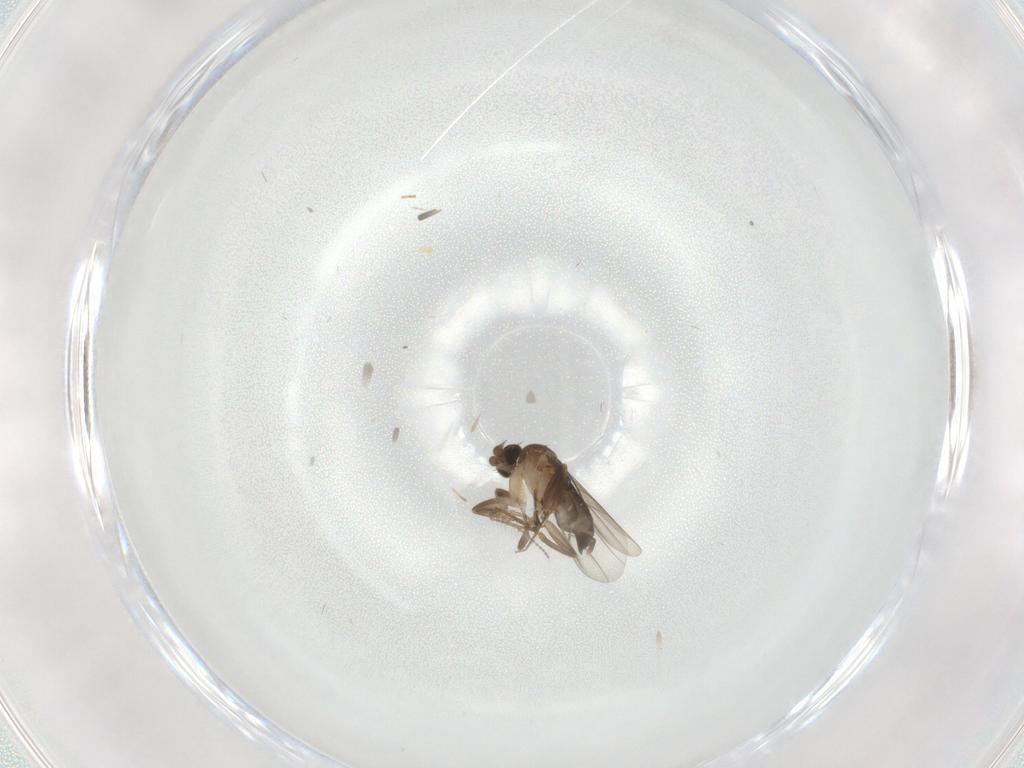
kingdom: Animalia
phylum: Arthropoda
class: Insecta
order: Diptera
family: Phoridae
